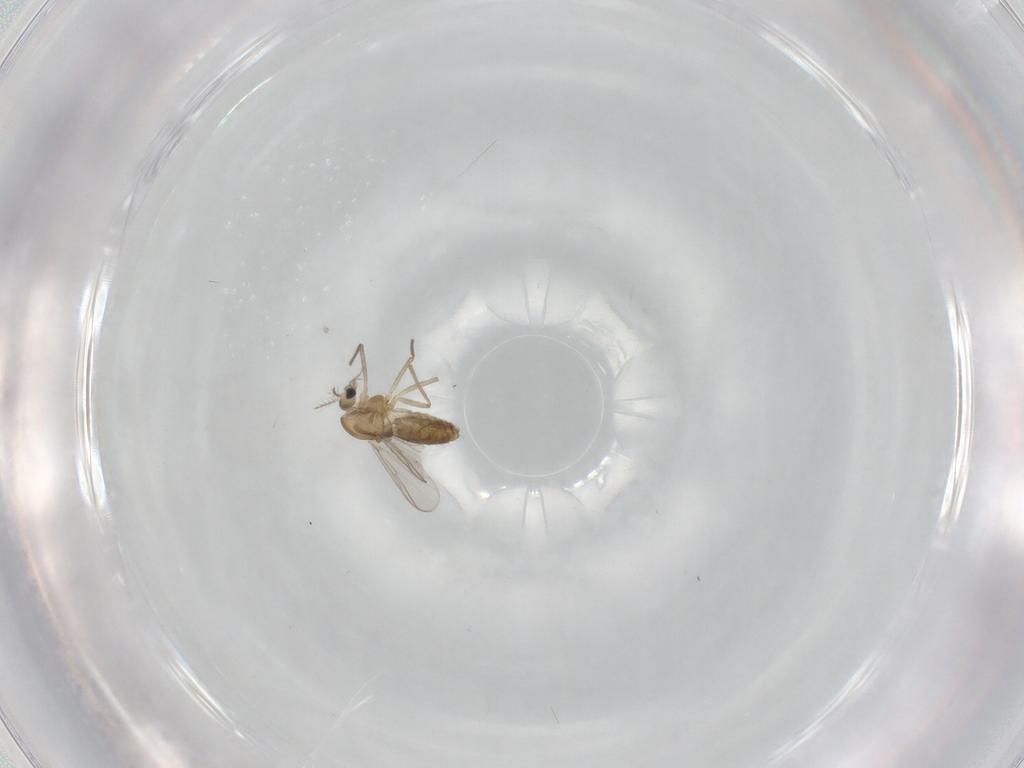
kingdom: Animalia
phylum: Arthropoda
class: Insecta
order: Diptera
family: Chironomidae
